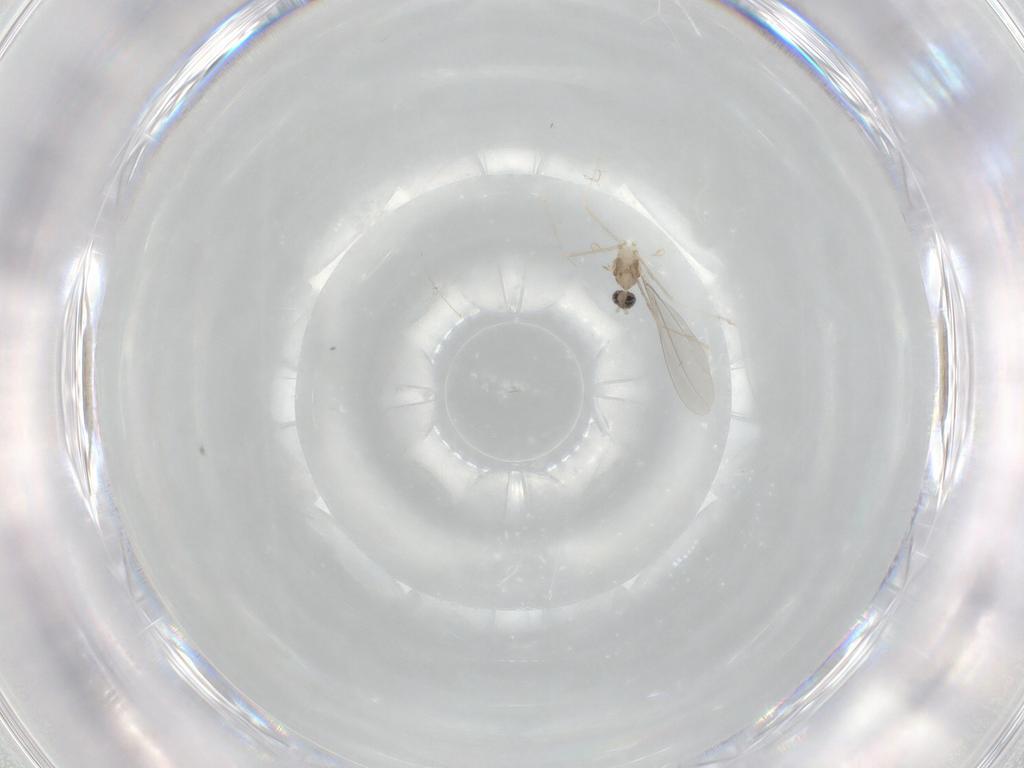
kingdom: Animalia
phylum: Arthropoda
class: Insecta
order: Diptera
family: Cecidomyiidae
